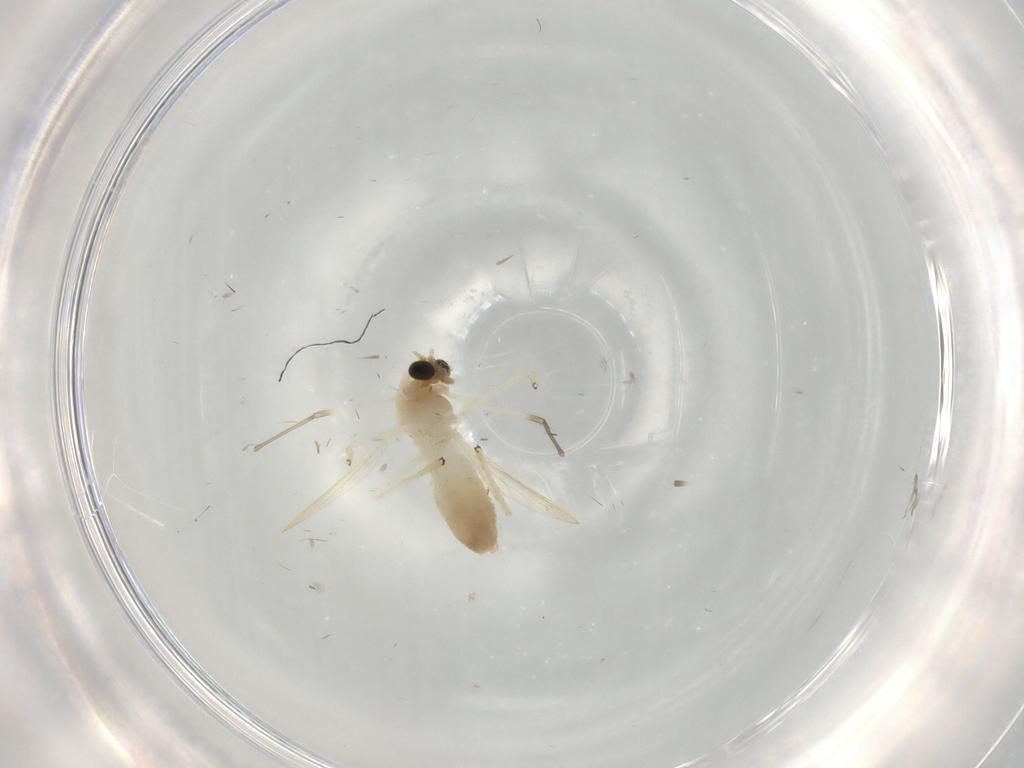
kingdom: Animalia
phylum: Arthropoda
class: Insecta
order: Diptera
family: Chironomidae
